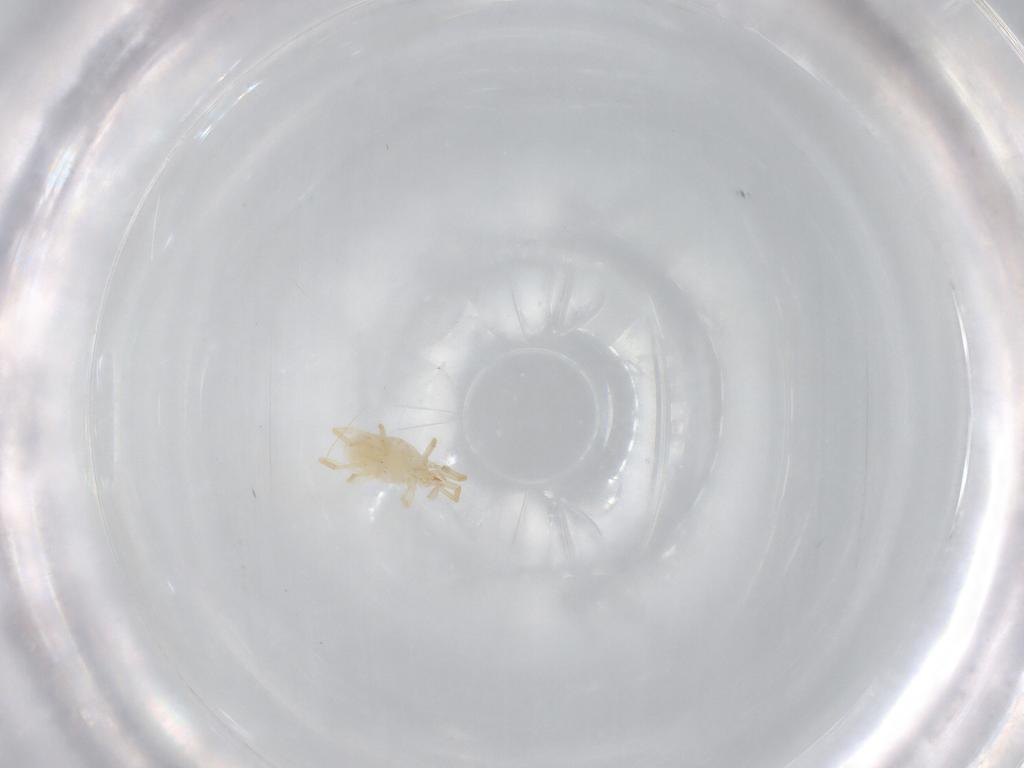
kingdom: Animalia
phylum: Arthropoda
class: Arachnida
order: Trombidiformes
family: Erythraeidae
